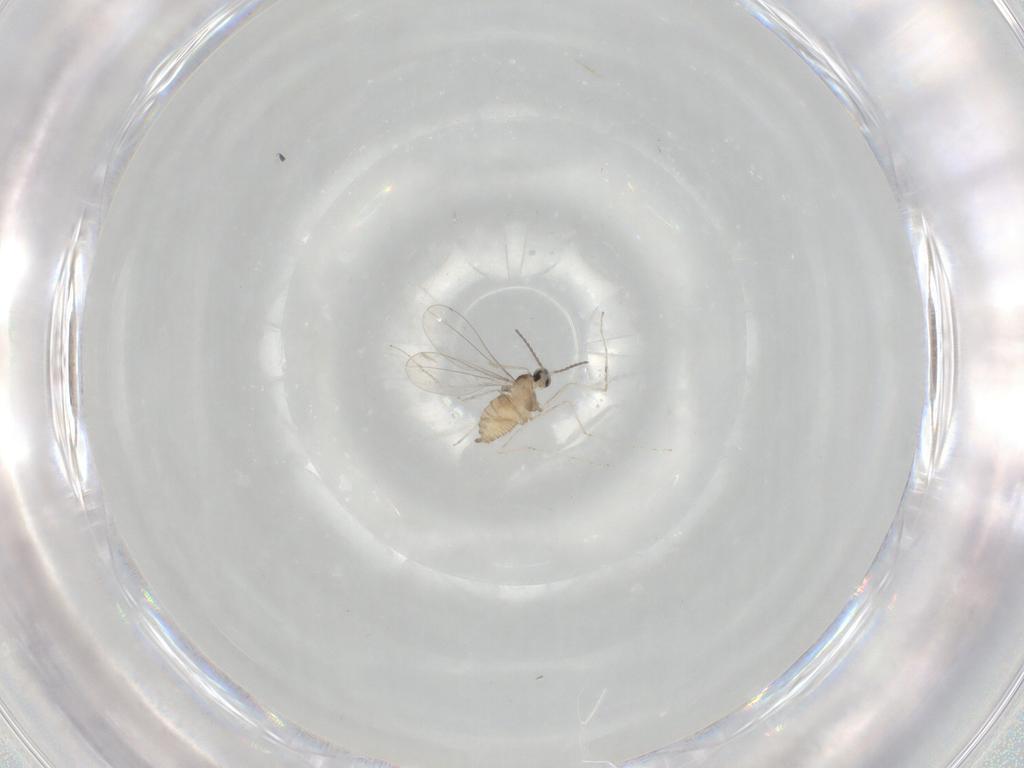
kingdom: Animalia
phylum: Arthropoda
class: Insecta
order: Diptera
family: Cecidomyiidae
